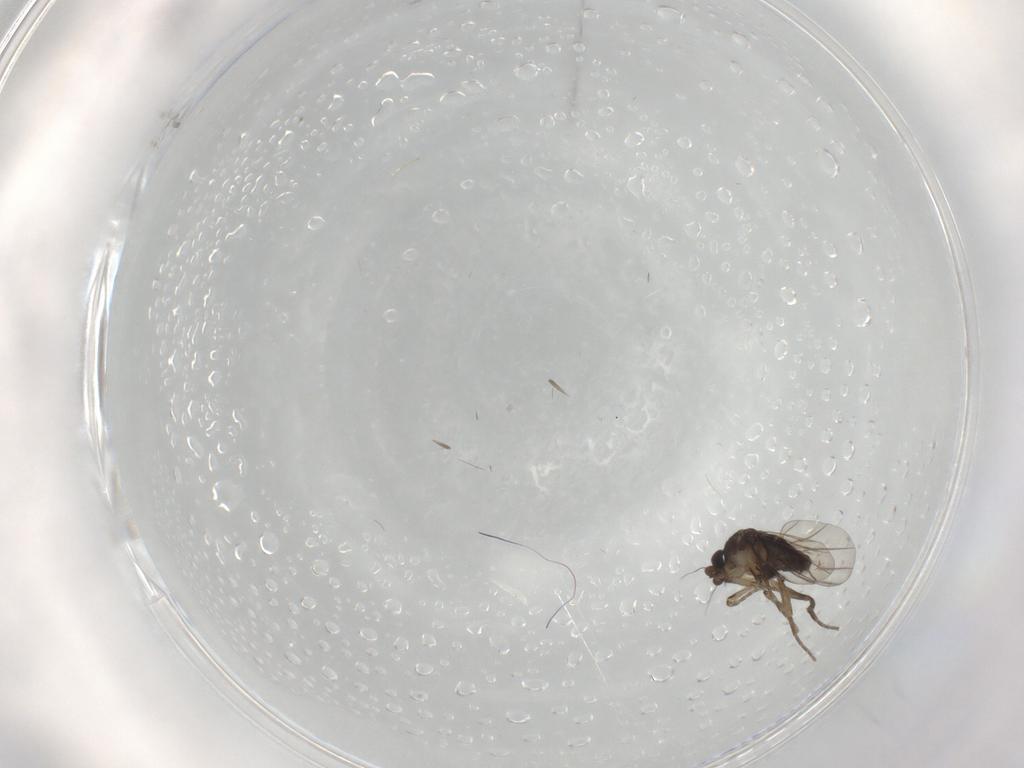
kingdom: Animalia
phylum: Arthropoda
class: Insecta
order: Diptera
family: Phoridae
